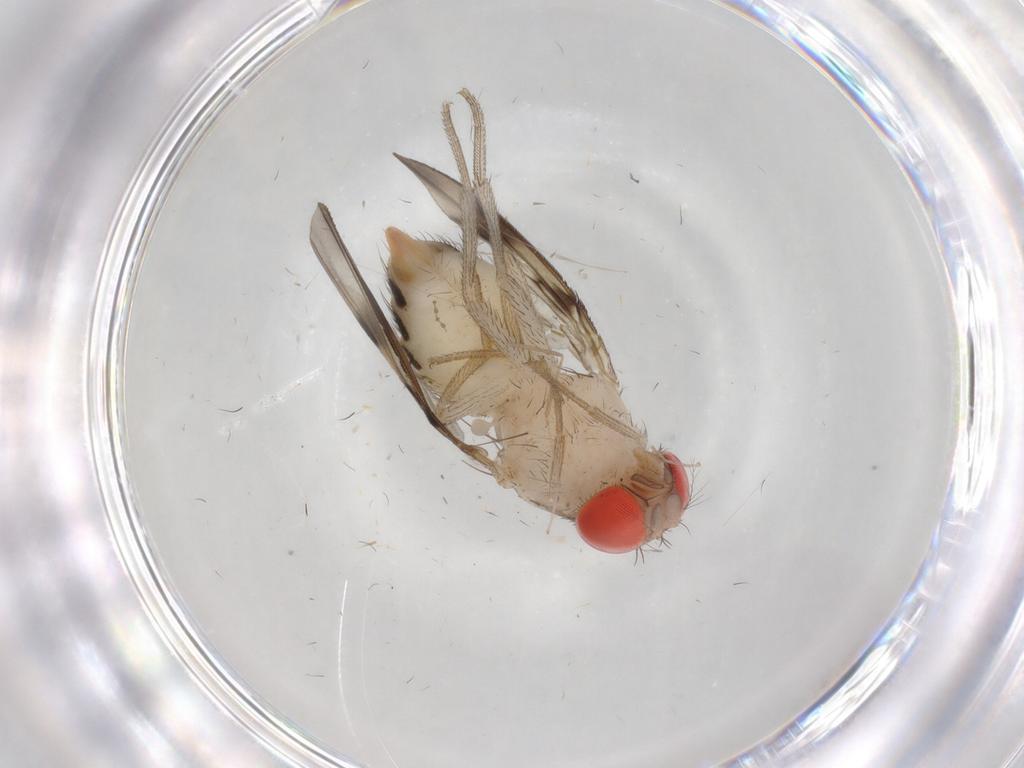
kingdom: Animalia
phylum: Arthropoda
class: Insecta
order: Diptera
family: Drosophilidae
